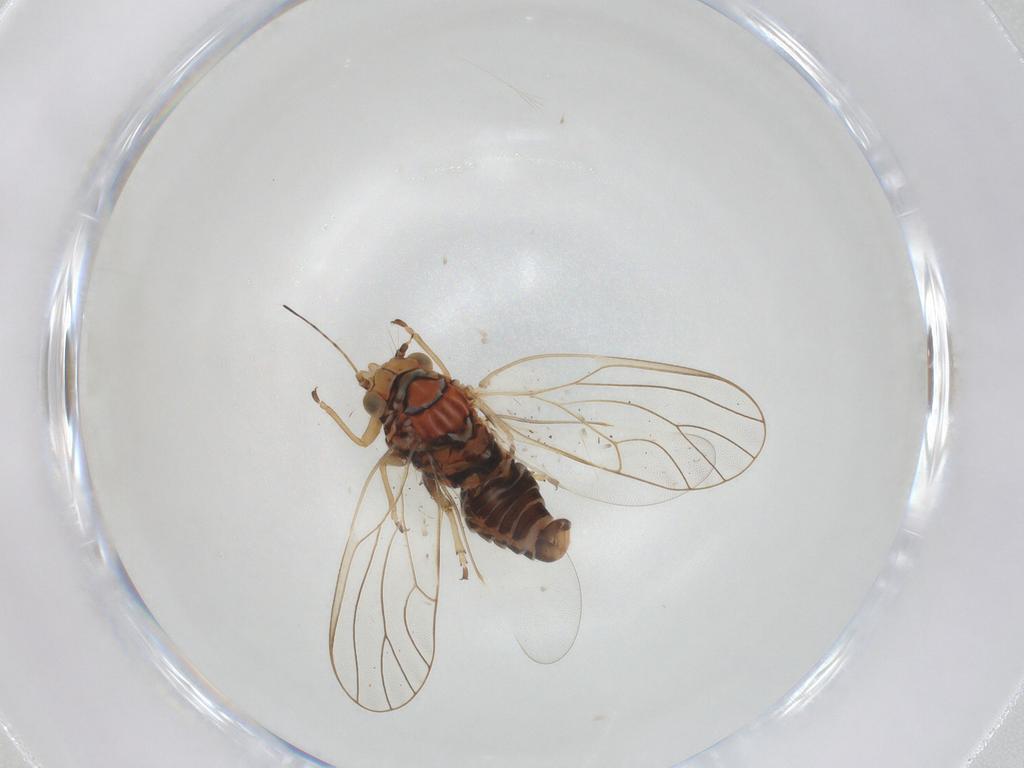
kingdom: Animalia
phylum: Arthropoda
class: Insecta
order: Hemiptera
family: Psyllidae
